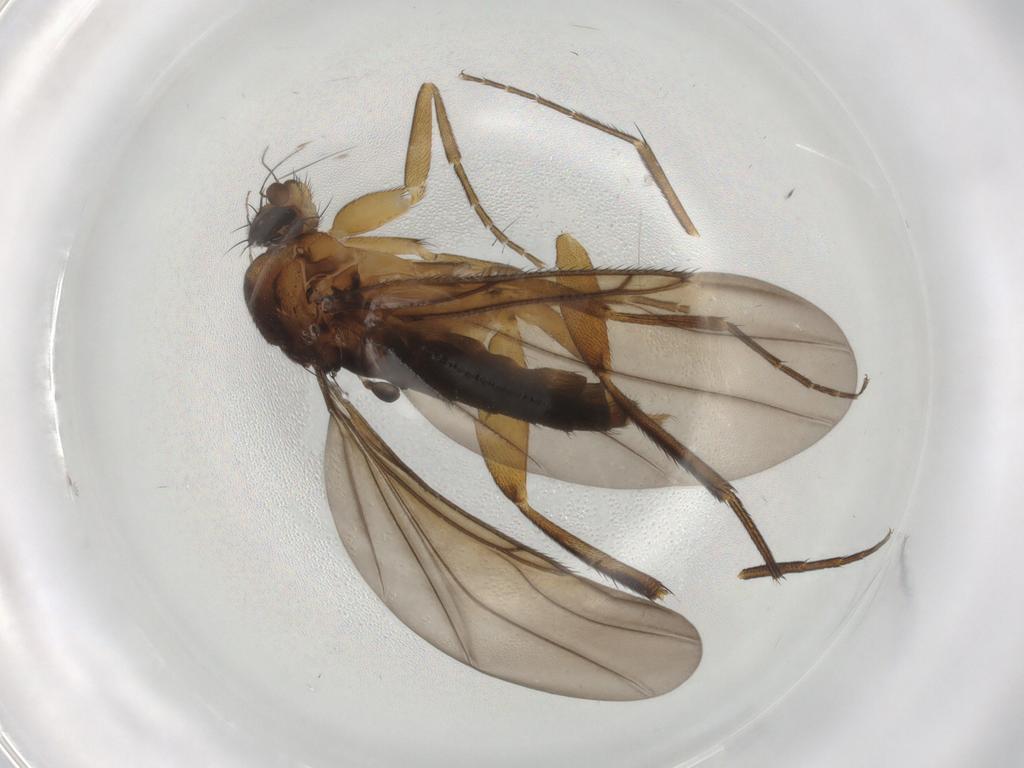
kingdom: Animalia
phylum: Arthropoda
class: Insecta
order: Diptera
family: Phoridae
